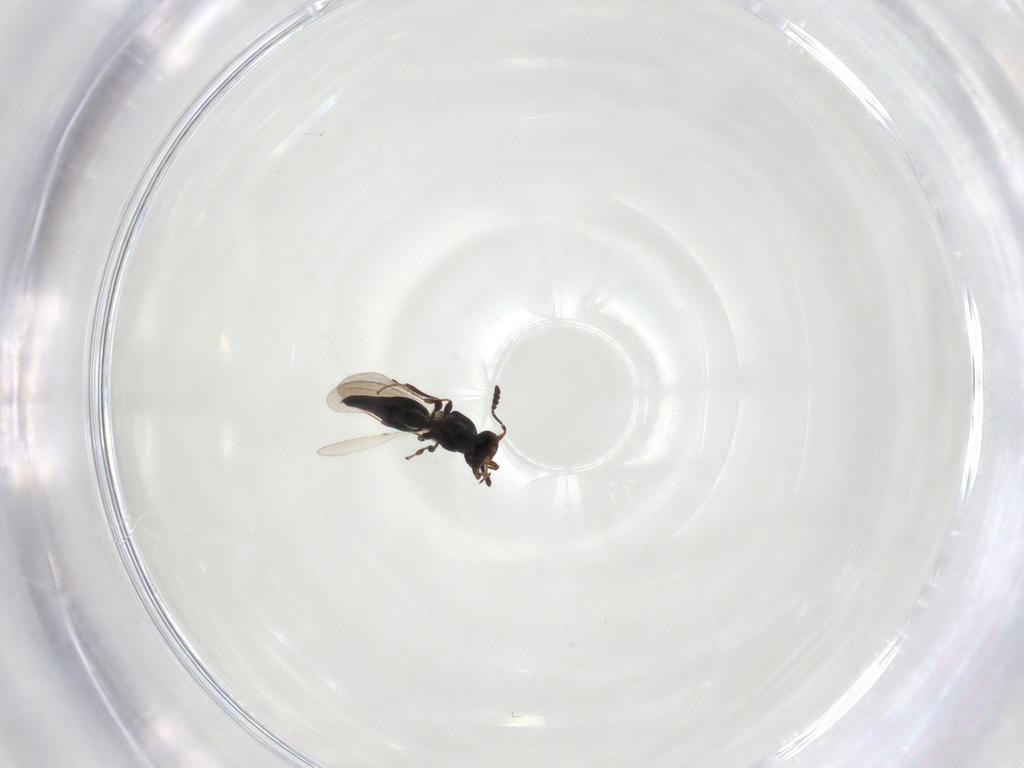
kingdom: Animalia
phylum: Arthropoda
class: Insecta
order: Hymenoptera
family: Platygastridae
